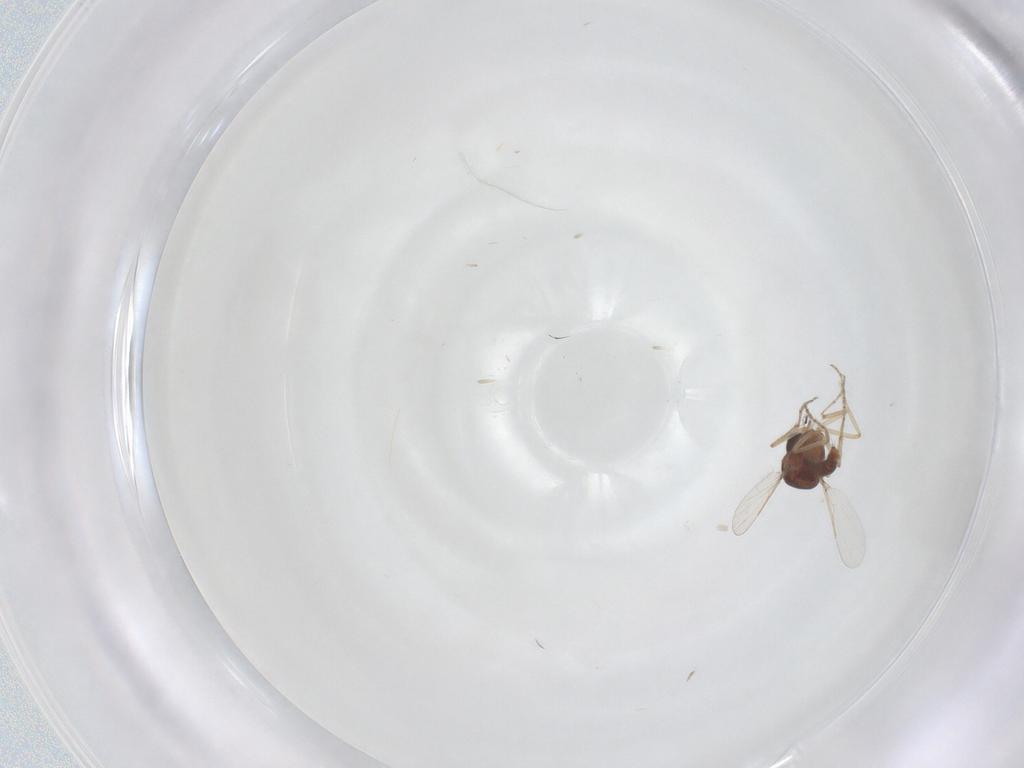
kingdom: Animalia
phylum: Arthropoda
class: Insecta
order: Diptera
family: Ceratopogonidae
